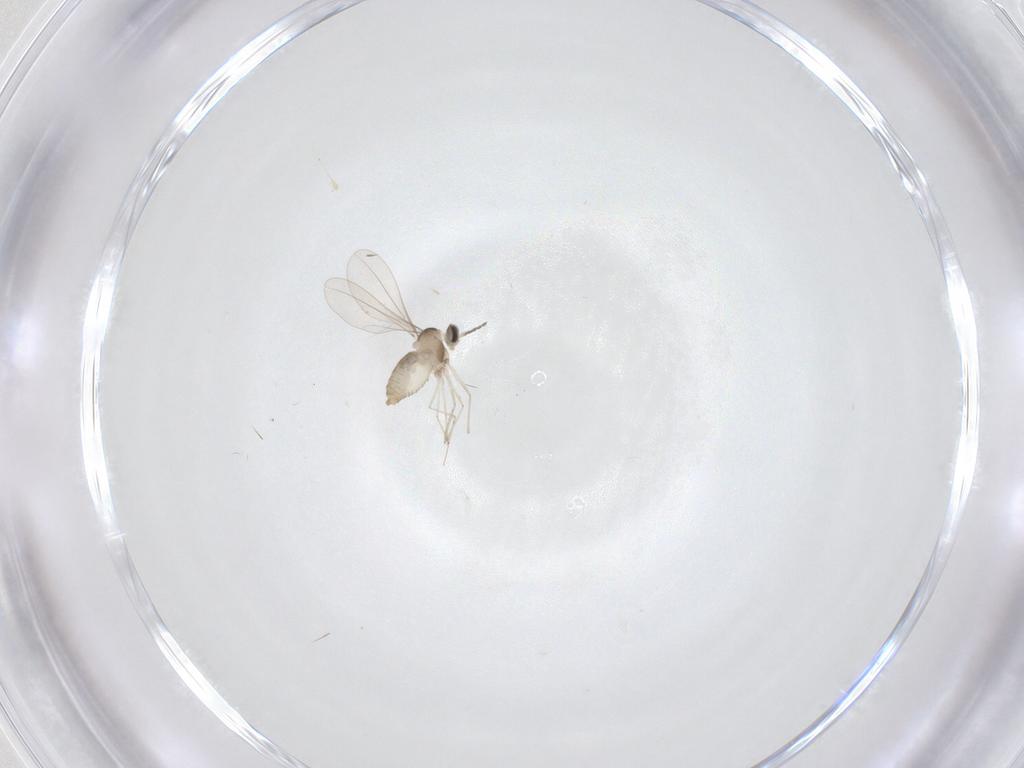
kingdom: Animalia
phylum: Arthropoda
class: Insecta
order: Diptera
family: Cecidomyiidae
